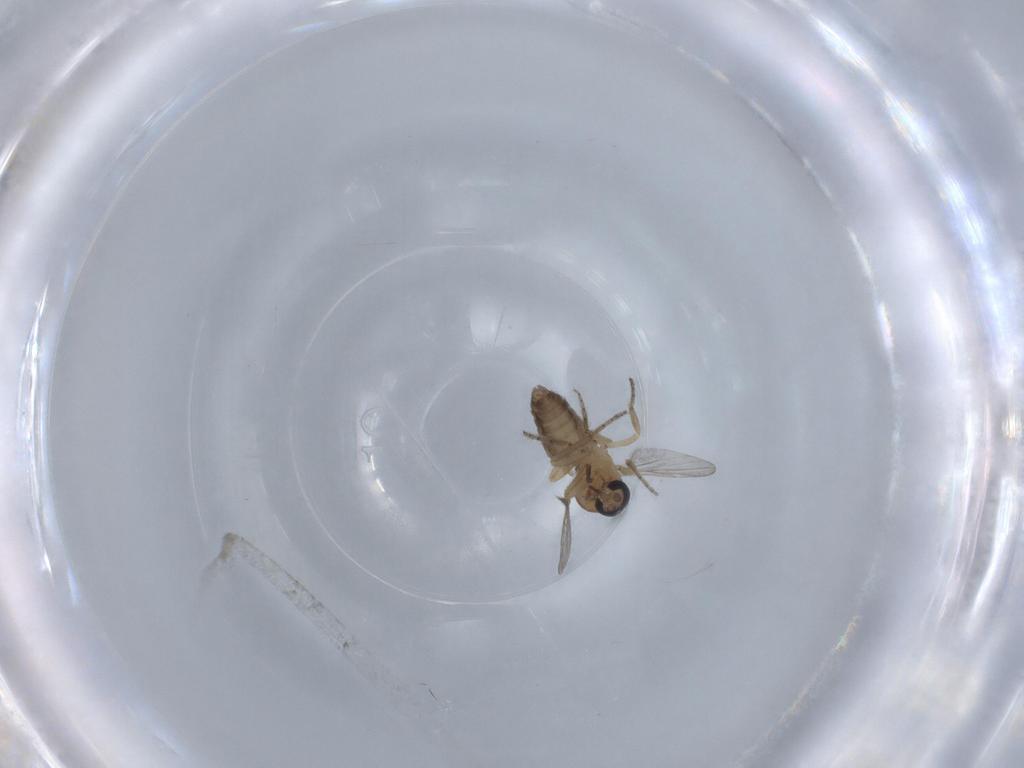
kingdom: Animalia
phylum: Arthropoda
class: Insecta
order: Diptera
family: Ceratopogonidae
